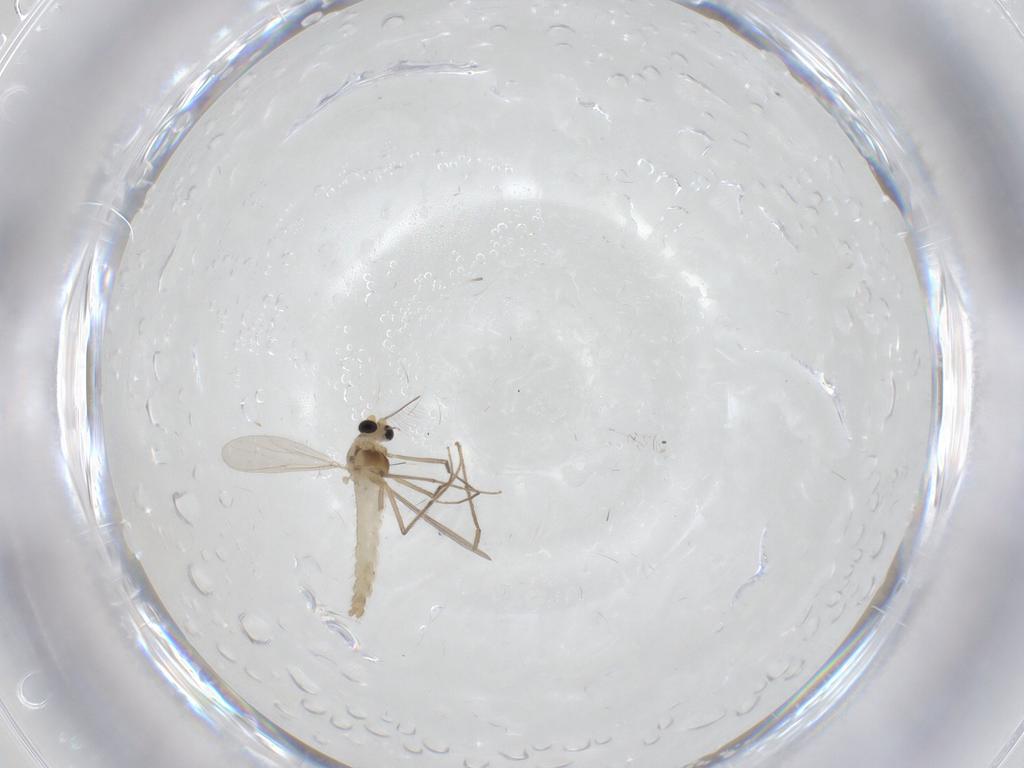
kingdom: Animalia
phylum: Arthropoda
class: Insecta
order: Diptera
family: Phoridae
